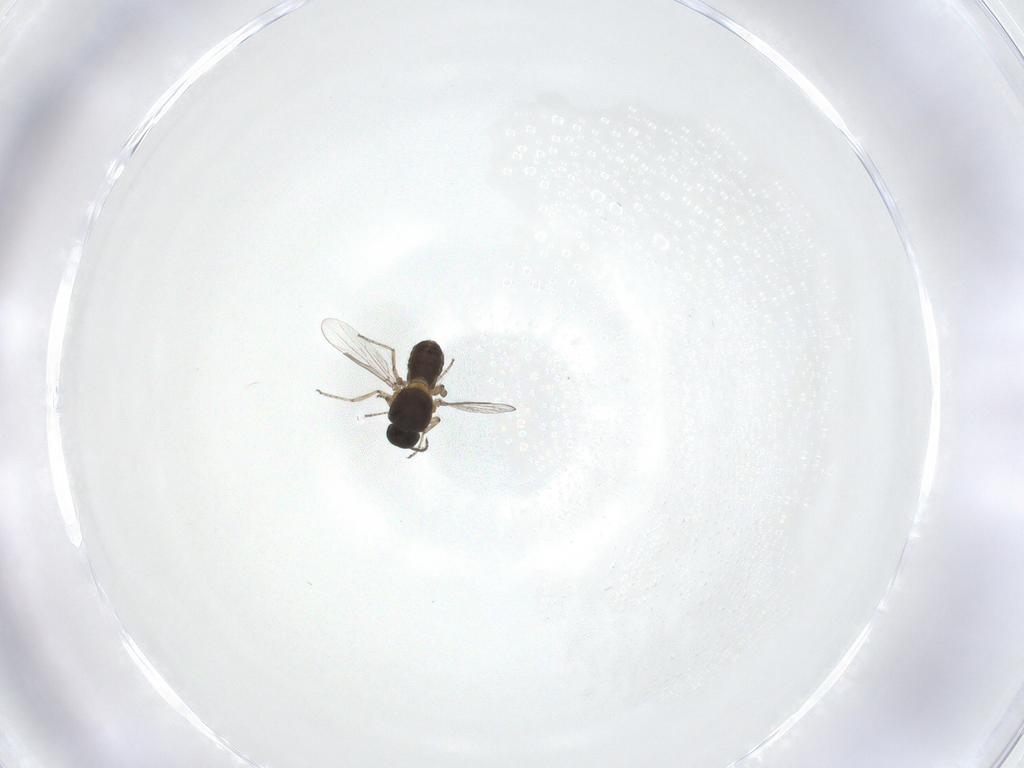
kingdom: Animalia
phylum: Arthropoda
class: Insecta
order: Diptera
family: Ceratopogonidae
